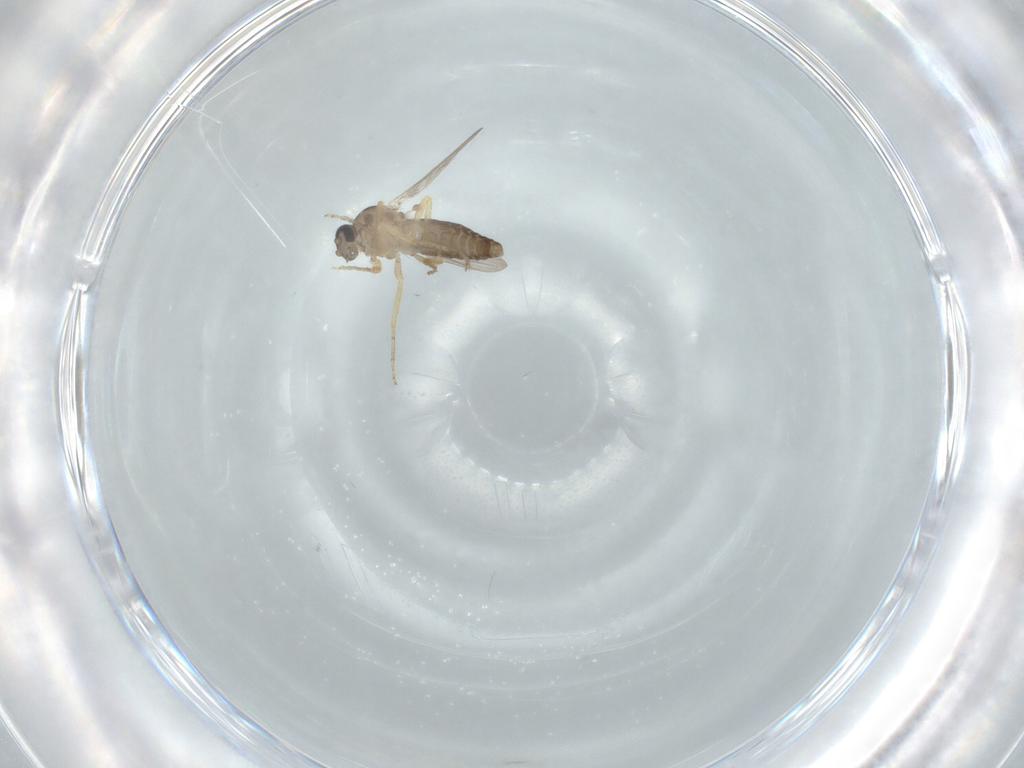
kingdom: Animalia
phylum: Arthropoda
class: Insecta
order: Diptera
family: Ceratopogonidae
